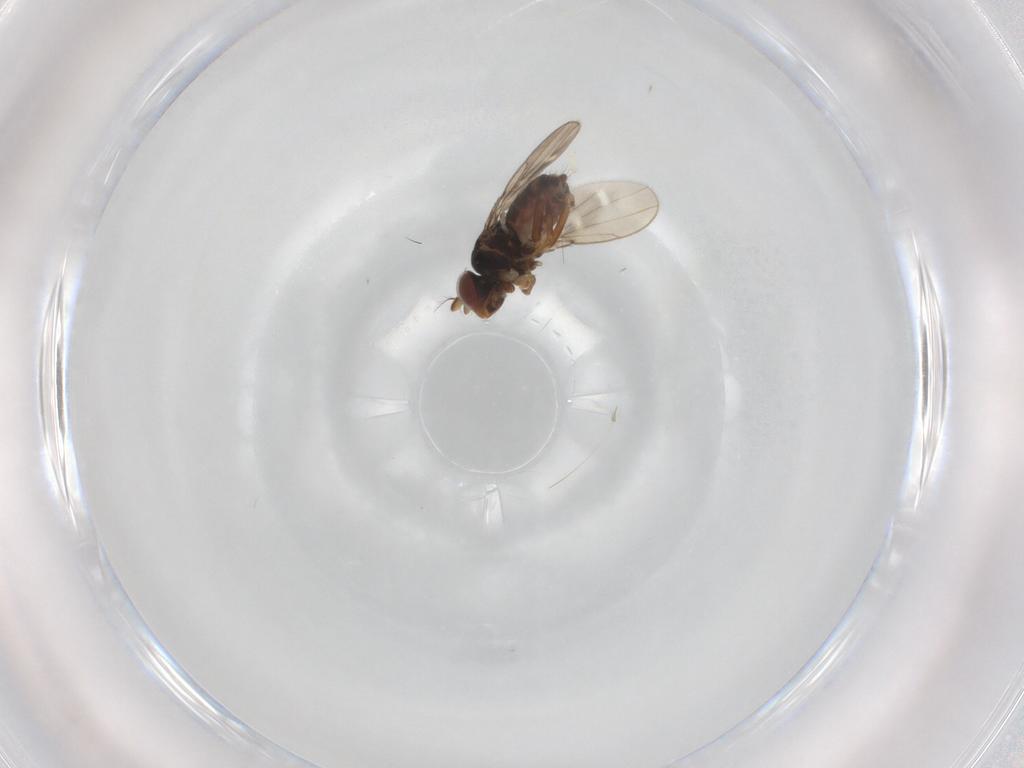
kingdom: Animalia
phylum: Arthropoda
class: Insecta
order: Diptera
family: Ephydridae
